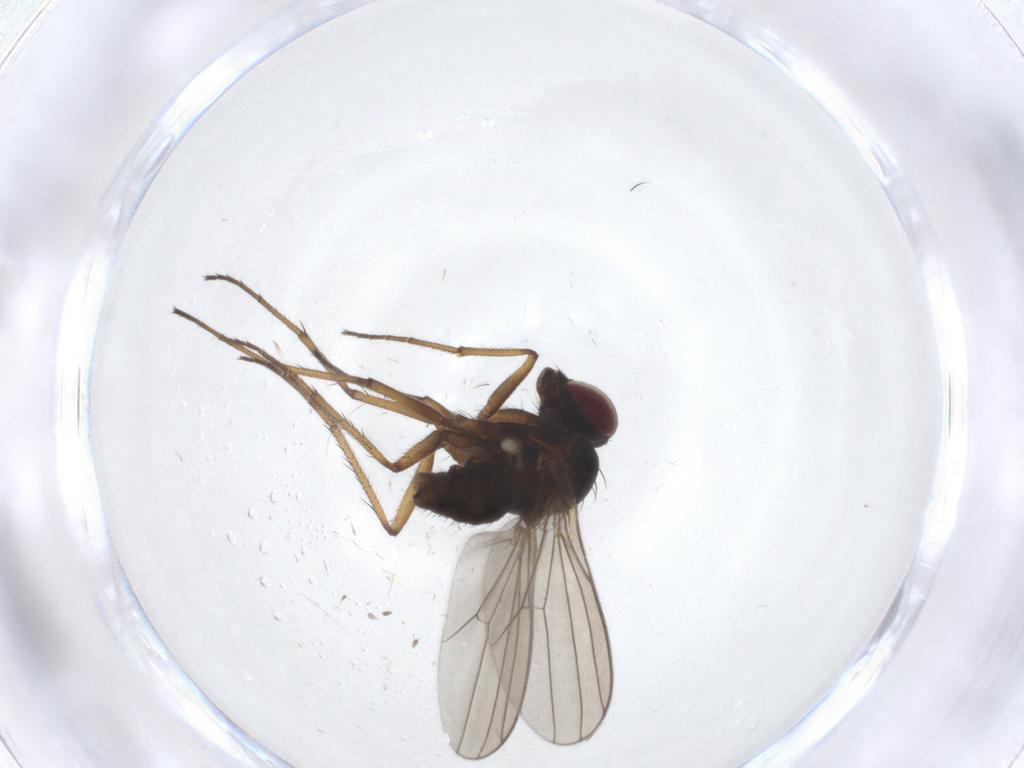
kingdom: Animalia
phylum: Arthropoda
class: Insecta
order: Diptera
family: Dolichopodidae
